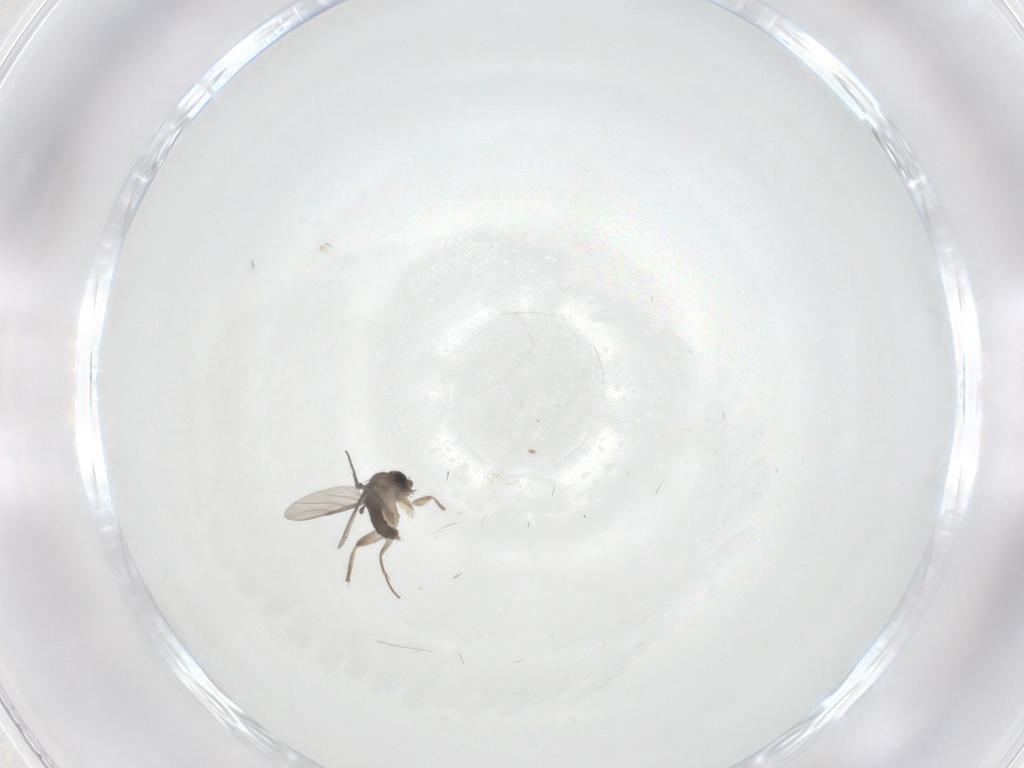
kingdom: Animalia
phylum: Arthropoda
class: Insecta
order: Diptera
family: Phoridae
